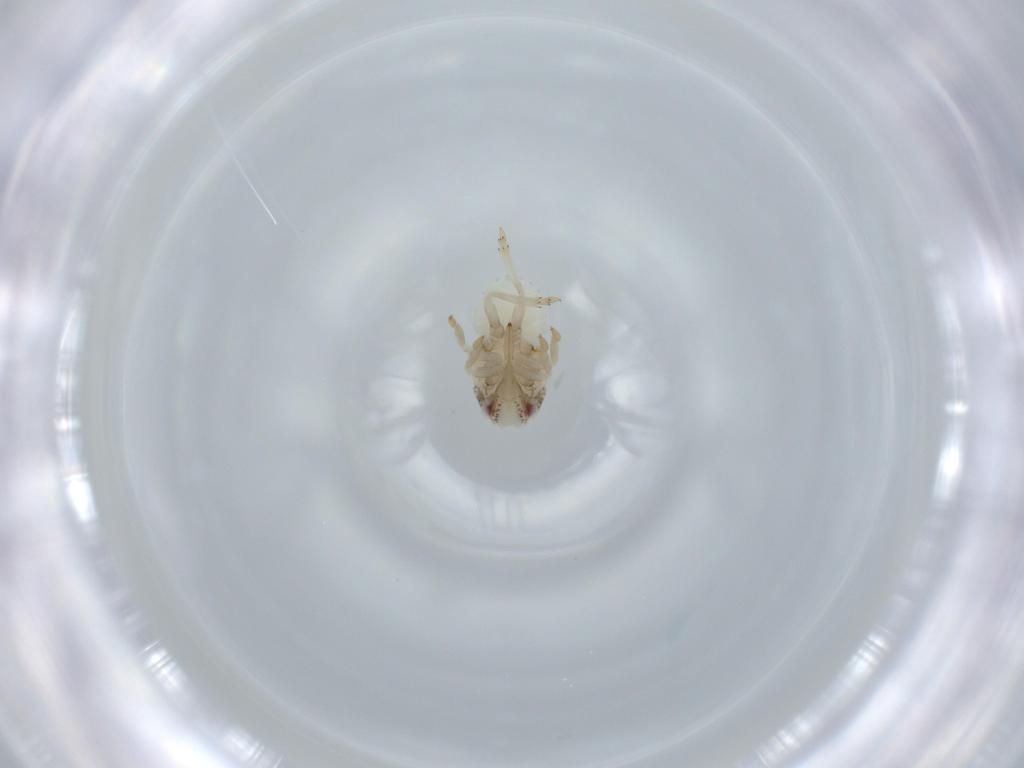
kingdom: Animalia
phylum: Arthropoda
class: Insecta
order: Hemiptera
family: Acanaloniidae
